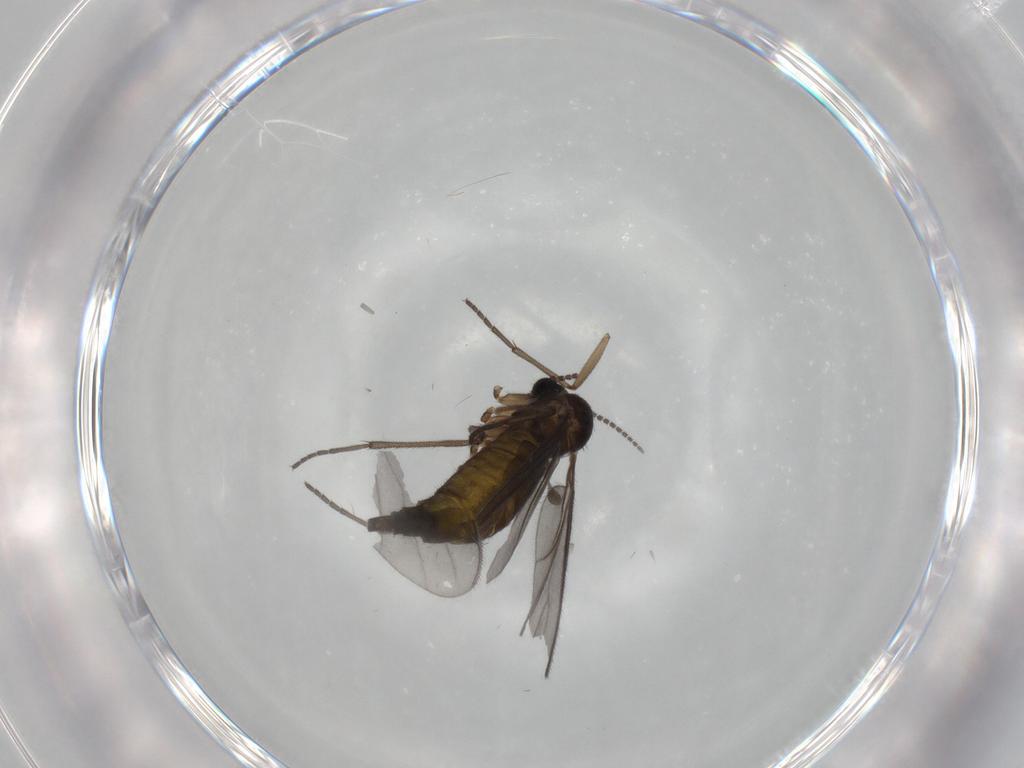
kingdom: Animalia
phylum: Arthropoda
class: Insecta
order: Diptera
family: Sciaridae
